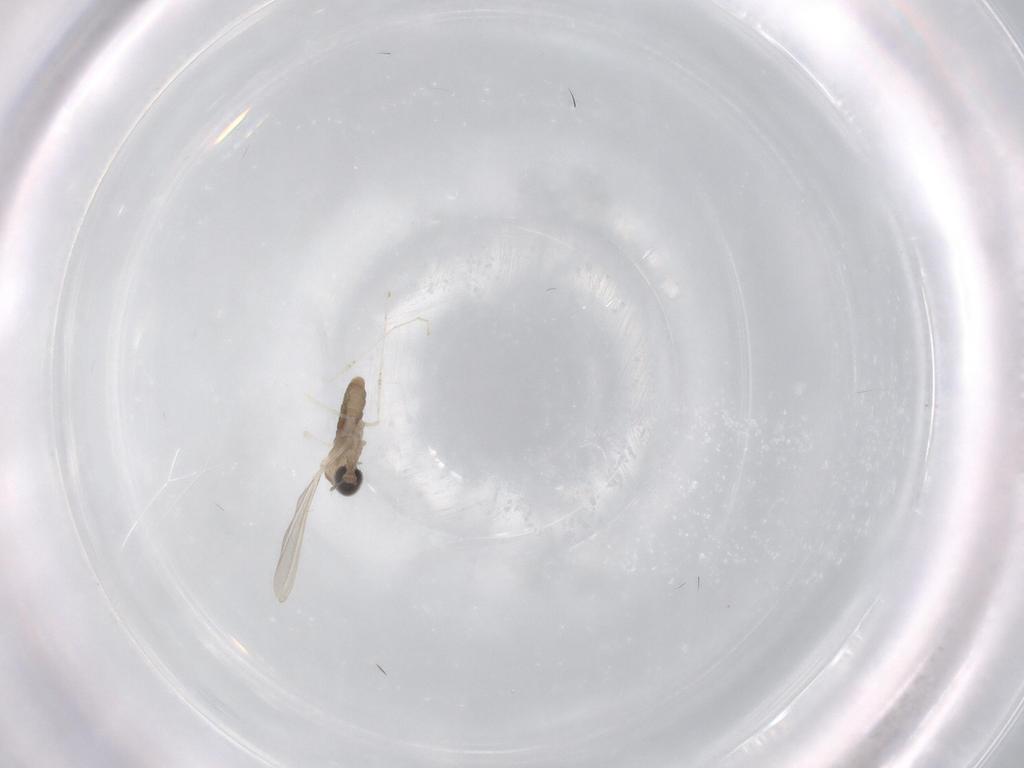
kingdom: Animalia
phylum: Arthropoda
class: Insecta
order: Diptera
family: Cecidomyiidae
